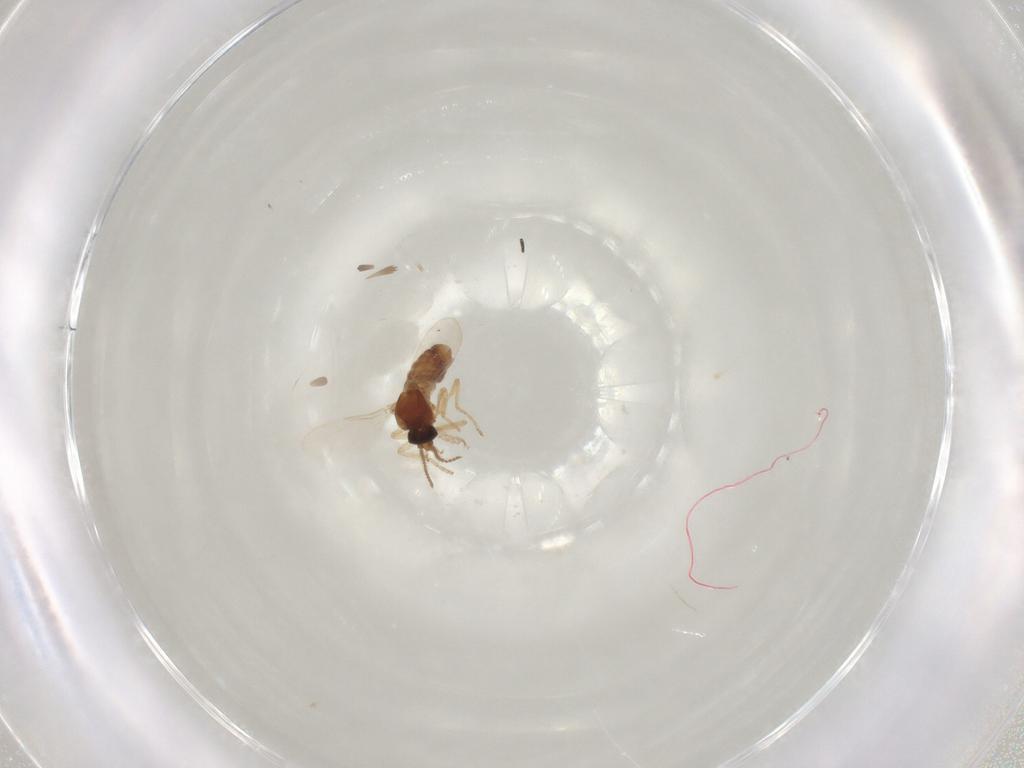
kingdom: Animalia
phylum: Arthropoda
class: Insecta
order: Diptera
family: Ceratopogonidae
